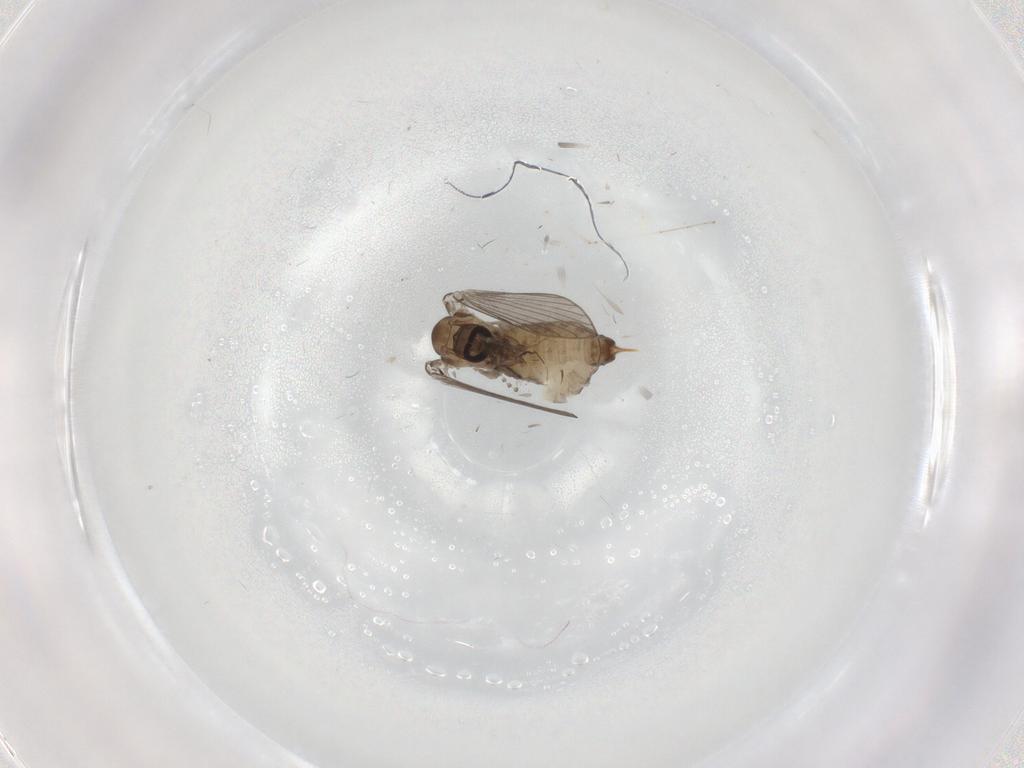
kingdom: Animalia
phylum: Arthropoda
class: Insecta
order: Diptera
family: Psychodidae
